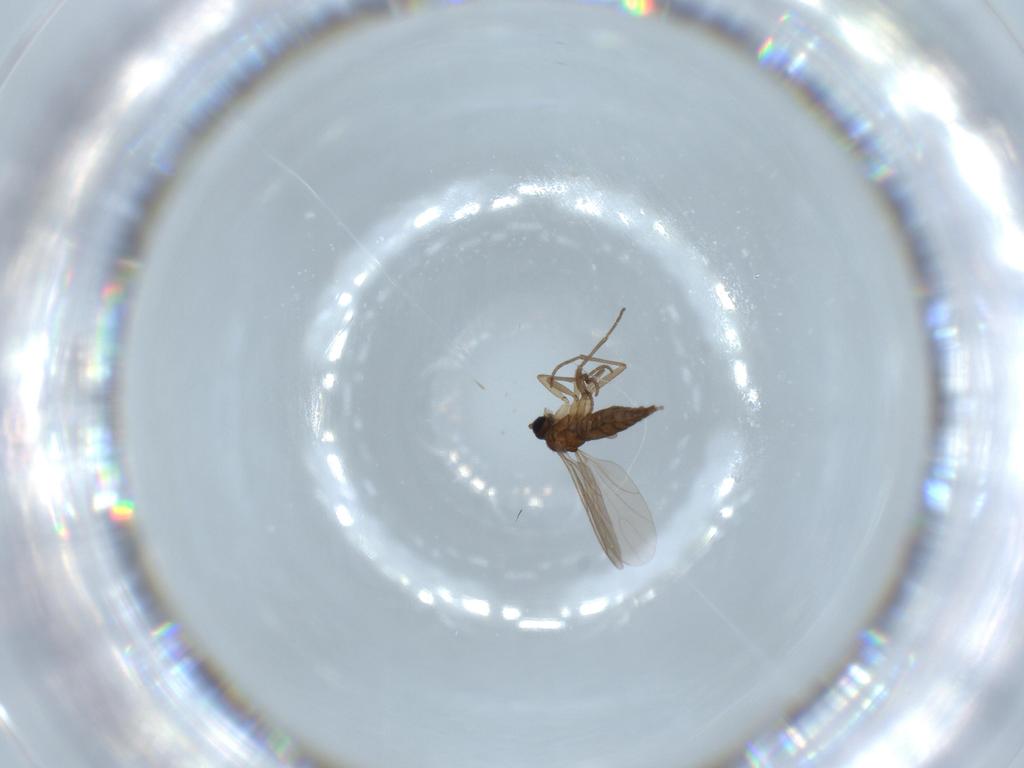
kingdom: Animalia
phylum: Arthropoda
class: Insecta
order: Diptera
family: Sciaridae
